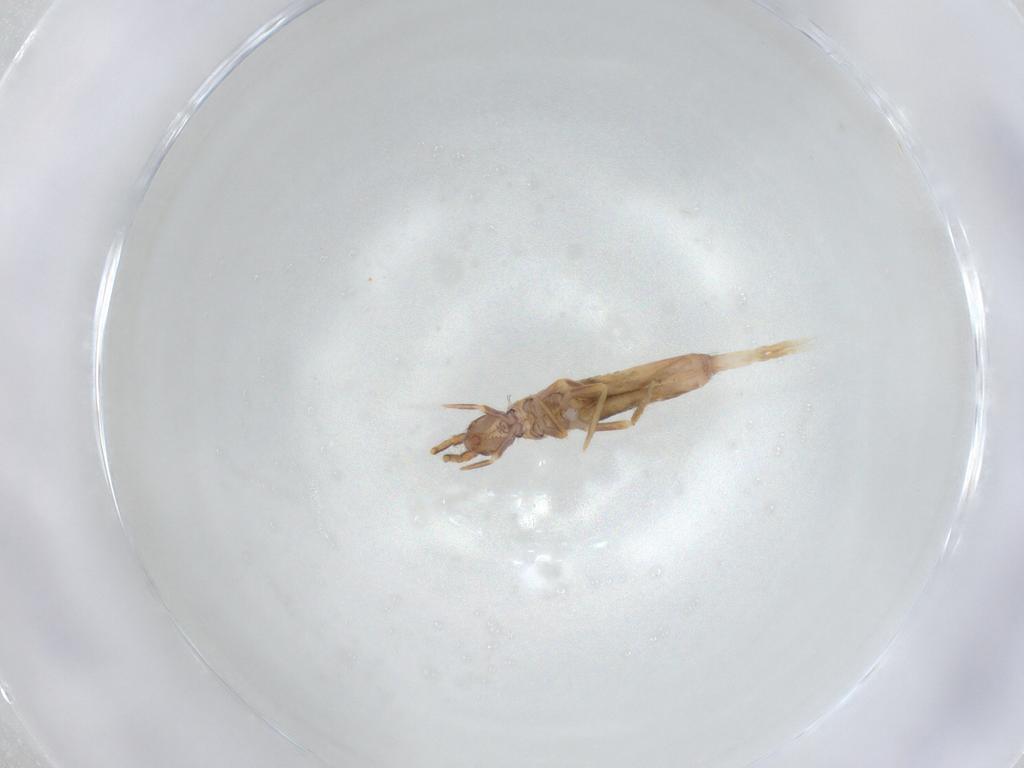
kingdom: Animalia
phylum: Arthropoda
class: Collembola
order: Entomobryomorpha
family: Entomobryidae
